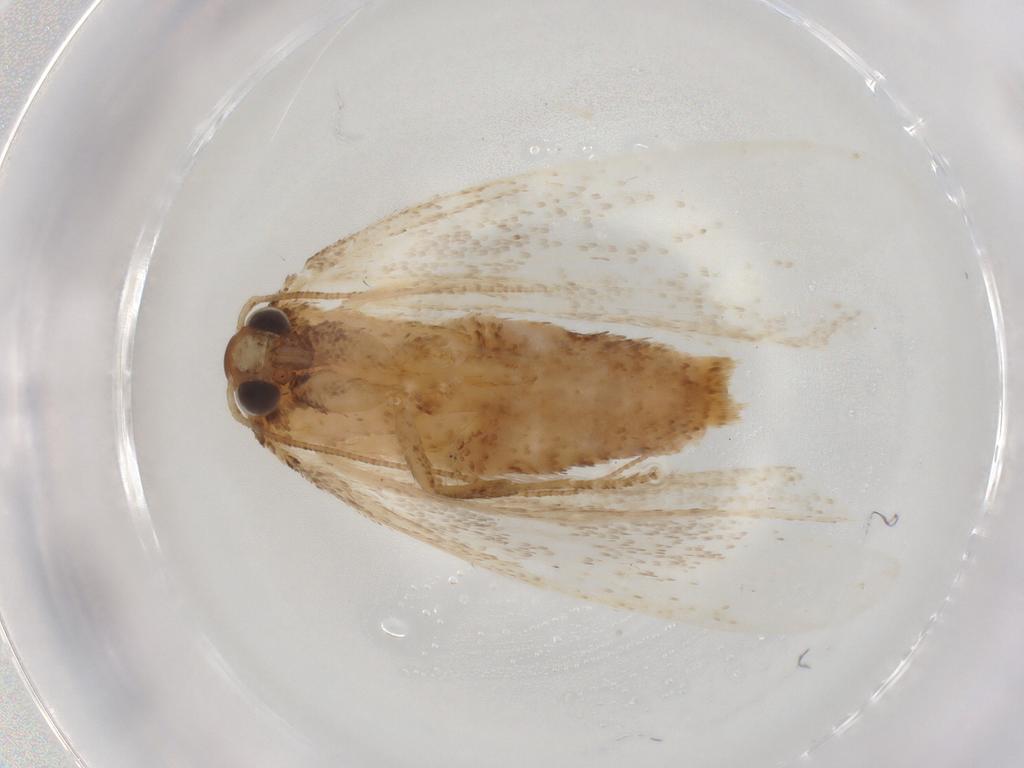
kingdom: Animalia
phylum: Arthropoda
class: Insecta
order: Lepidoptera
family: Autostichidae
